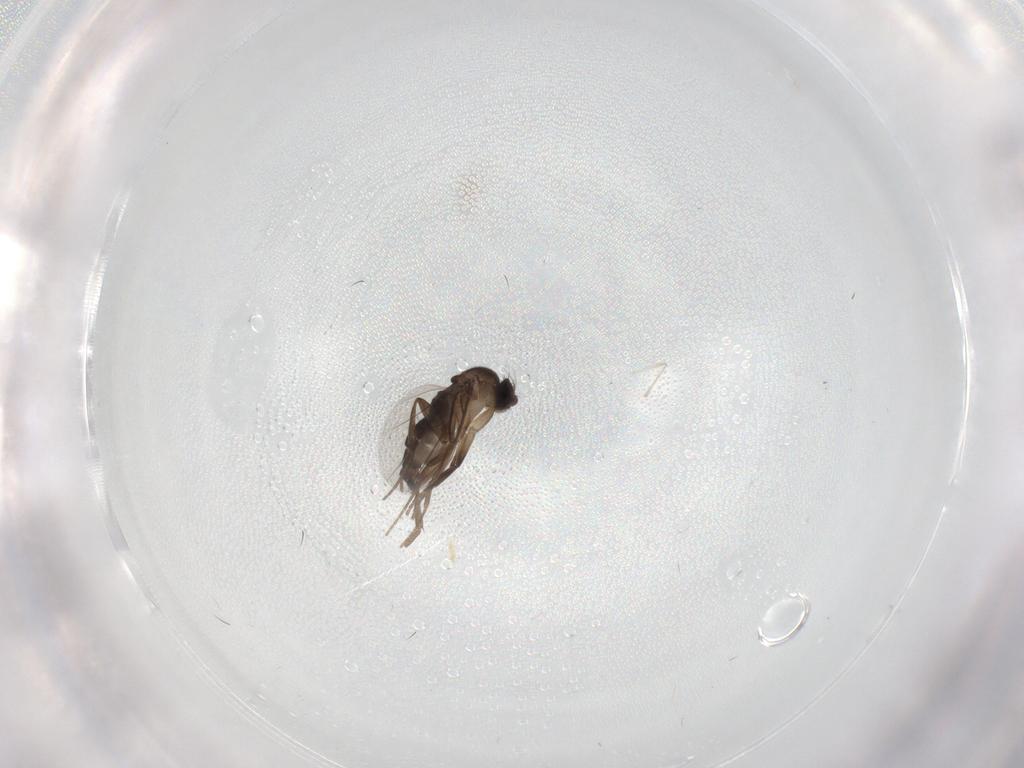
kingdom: Animalia
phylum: Arthropoda
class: Insecta
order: Diptera
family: Phoridae
